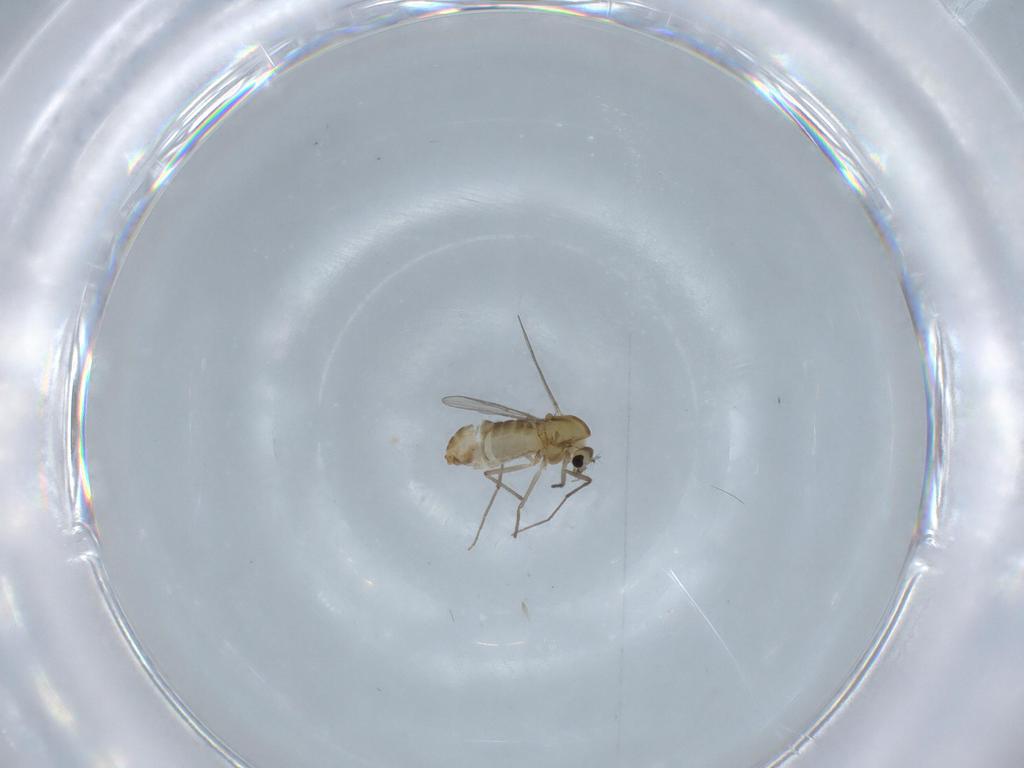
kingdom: Animalia
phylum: Arthropoda
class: Insecta
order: Diptera
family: Chironomidae
